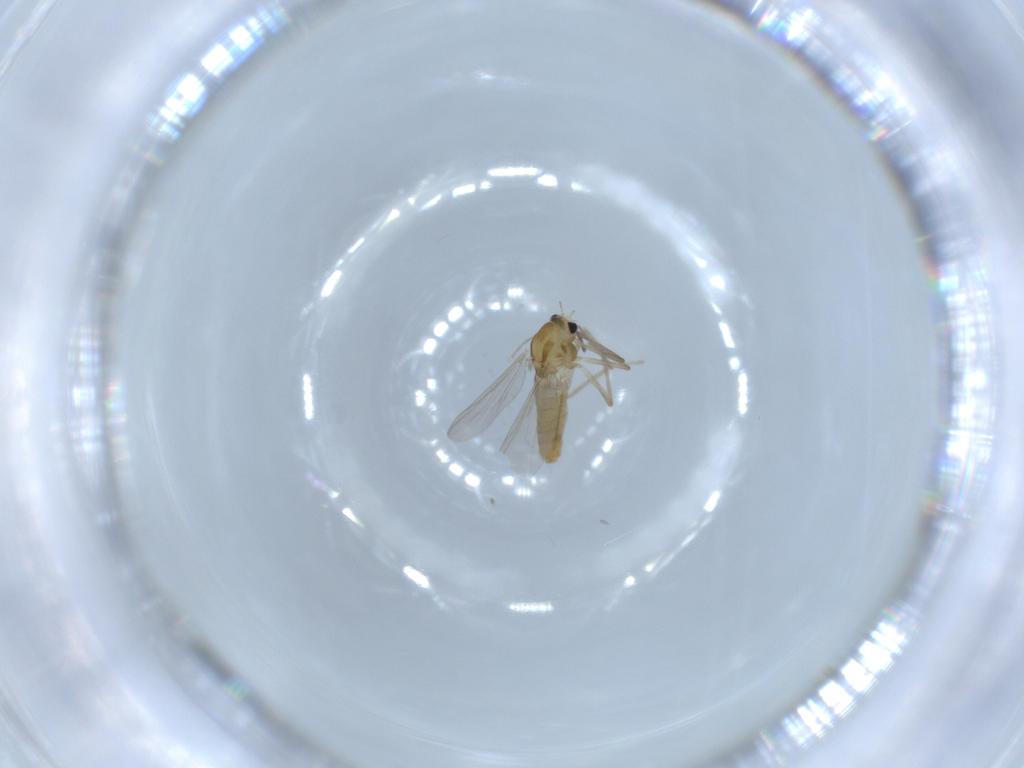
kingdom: Animalia
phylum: Arthropoda
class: Insecta
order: Diptera
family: Chironomidae
